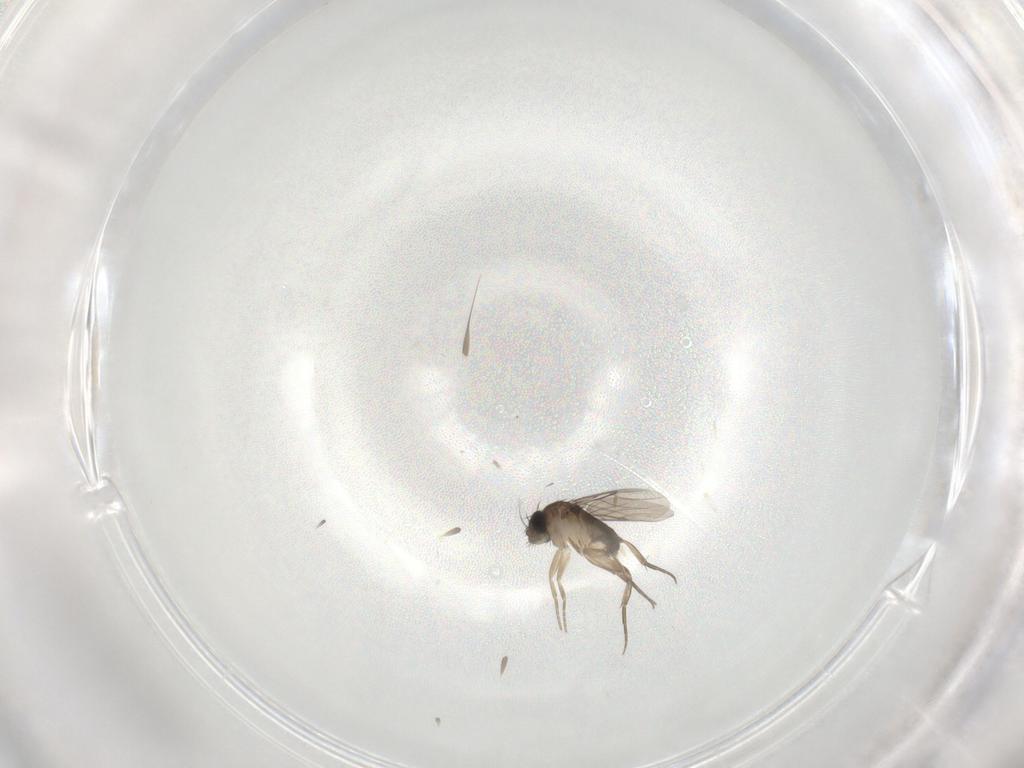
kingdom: Animalia
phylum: Arthropoda
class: Insecta
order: Diptera
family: Phoridae
